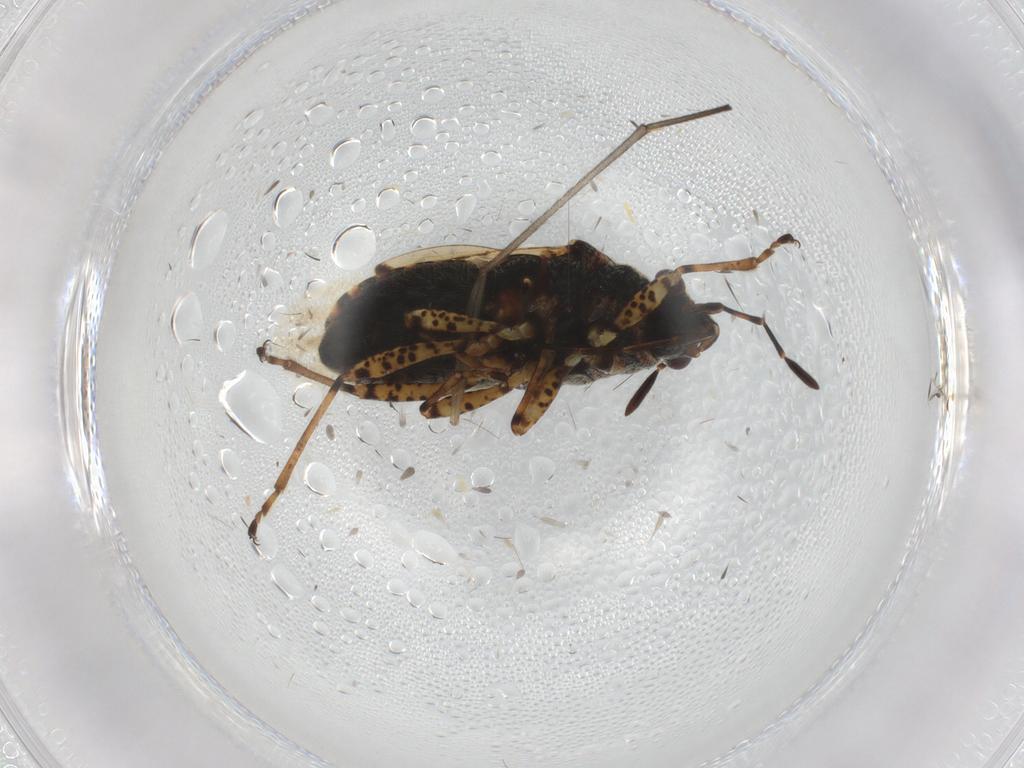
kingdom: Animalia
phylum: Arthropoda
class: Insecta
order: Hemiptera
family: Lygaeidae
